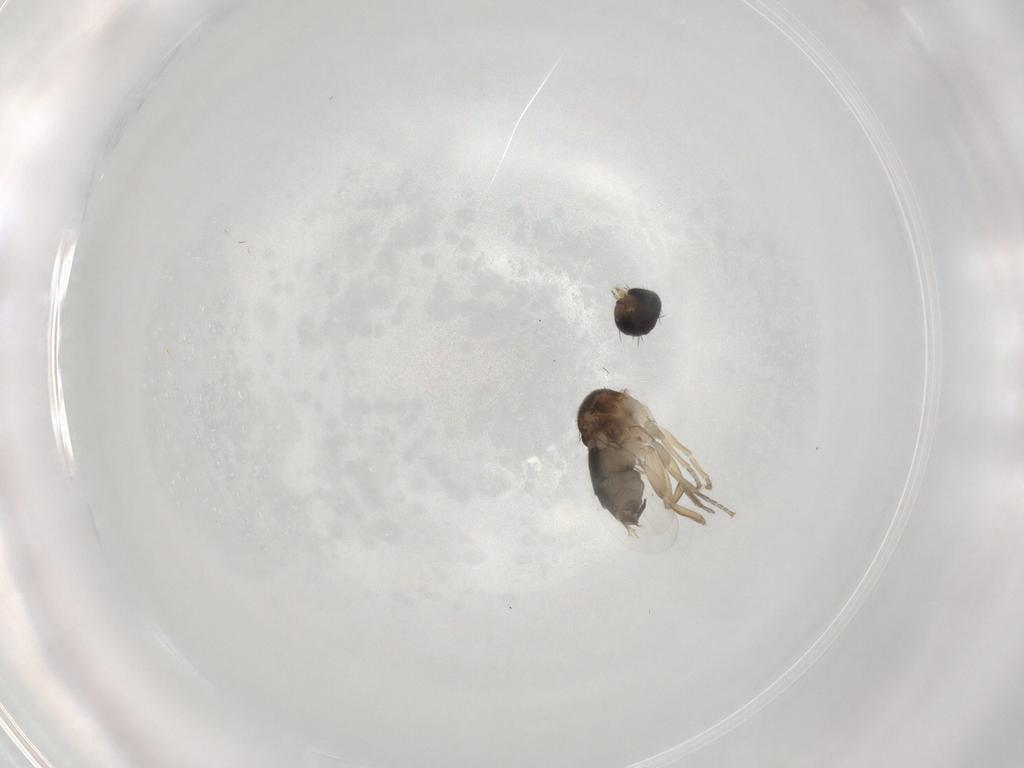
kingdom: Animalia
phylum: Arthropoda
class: Insecta
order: Diptera
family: Phoridae
